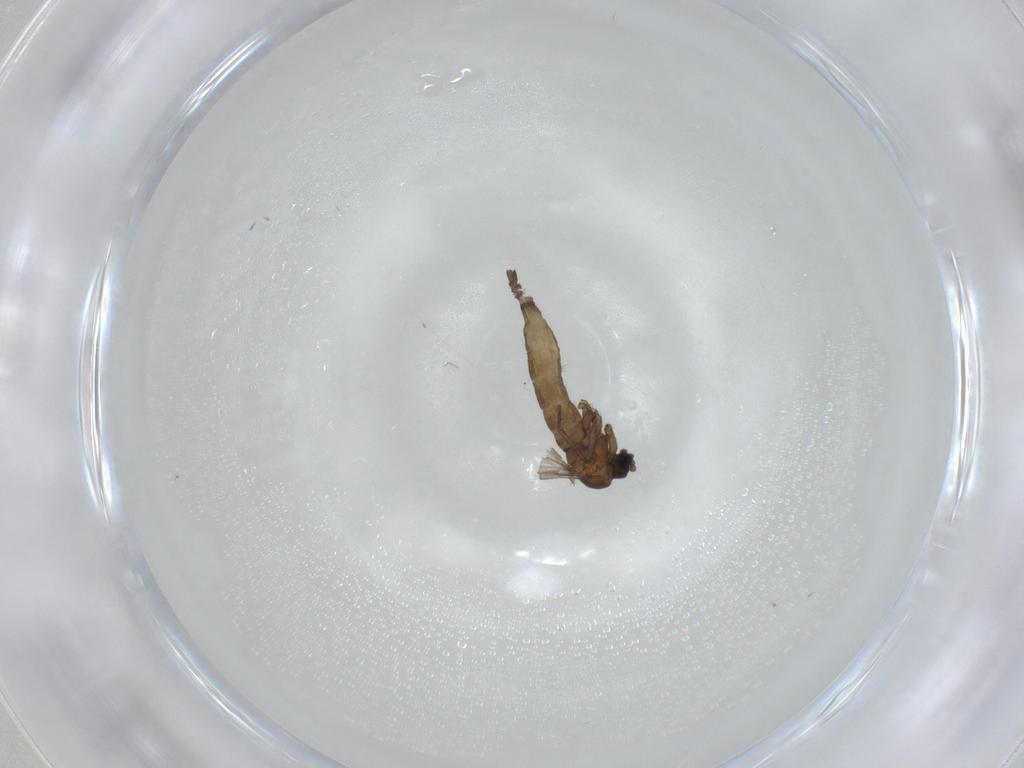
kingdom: Animalia
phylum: Arthropoda
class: Insecta
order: Diptera
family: Sciaridae
